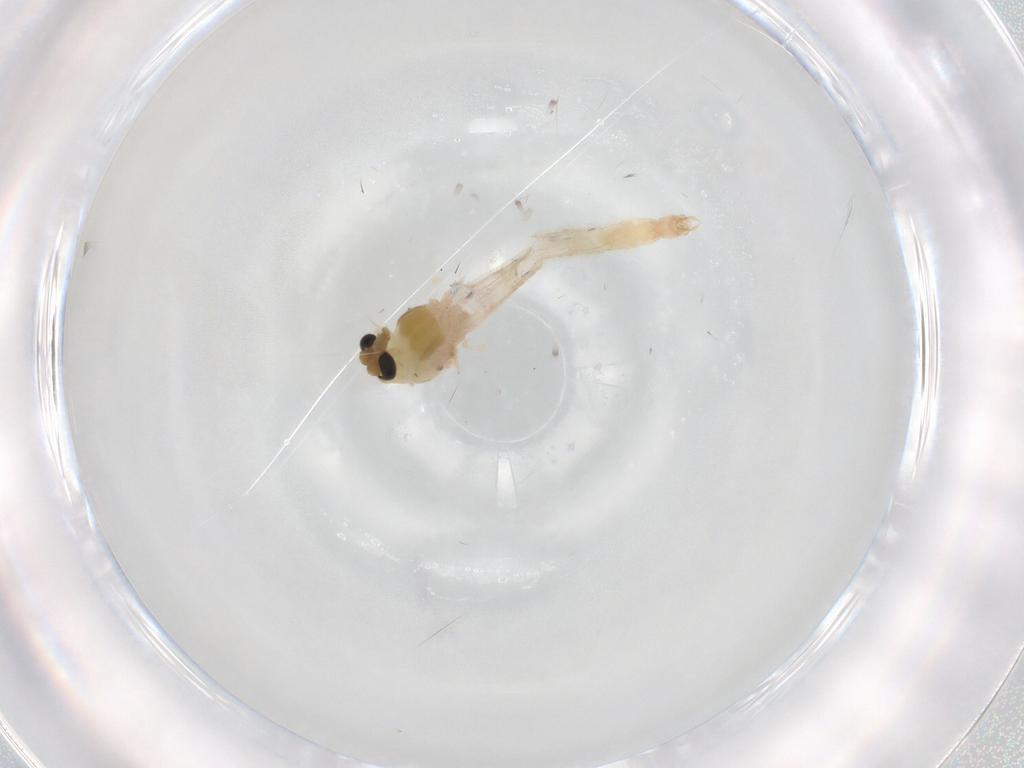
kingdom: Animalia
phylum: Arthropoda
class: Insecta
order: Diptera
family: Chironomidae
